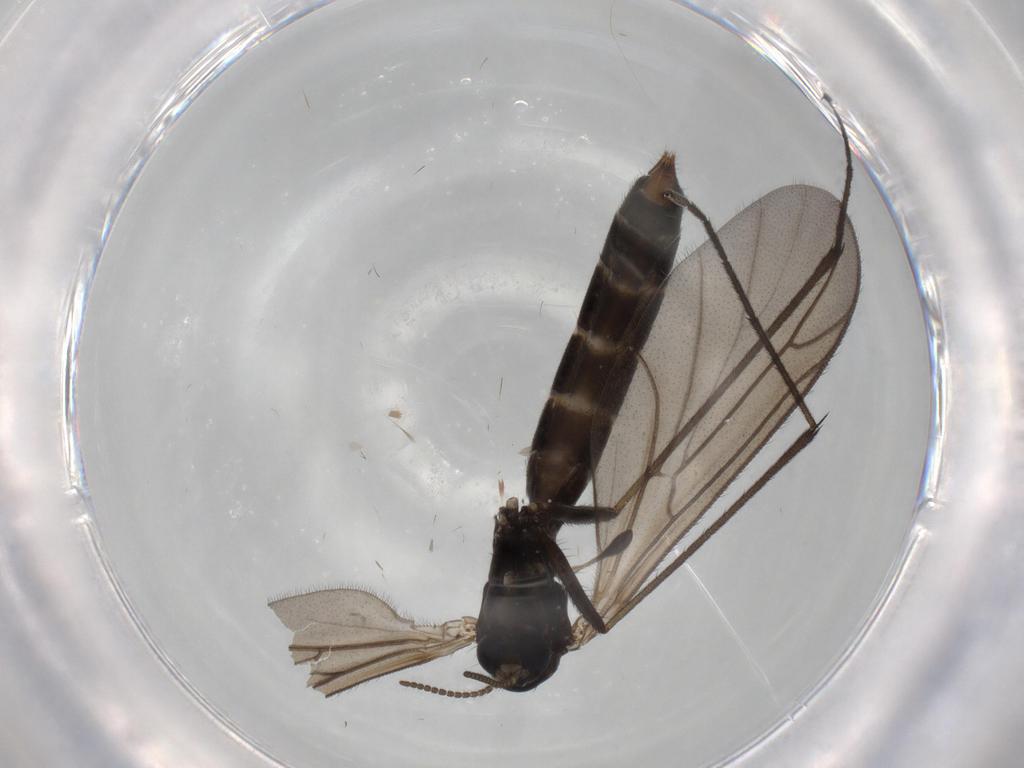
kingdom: Animalia
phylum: Arthropoda
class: Insecta
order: Diptera
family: Ditomyiidae
